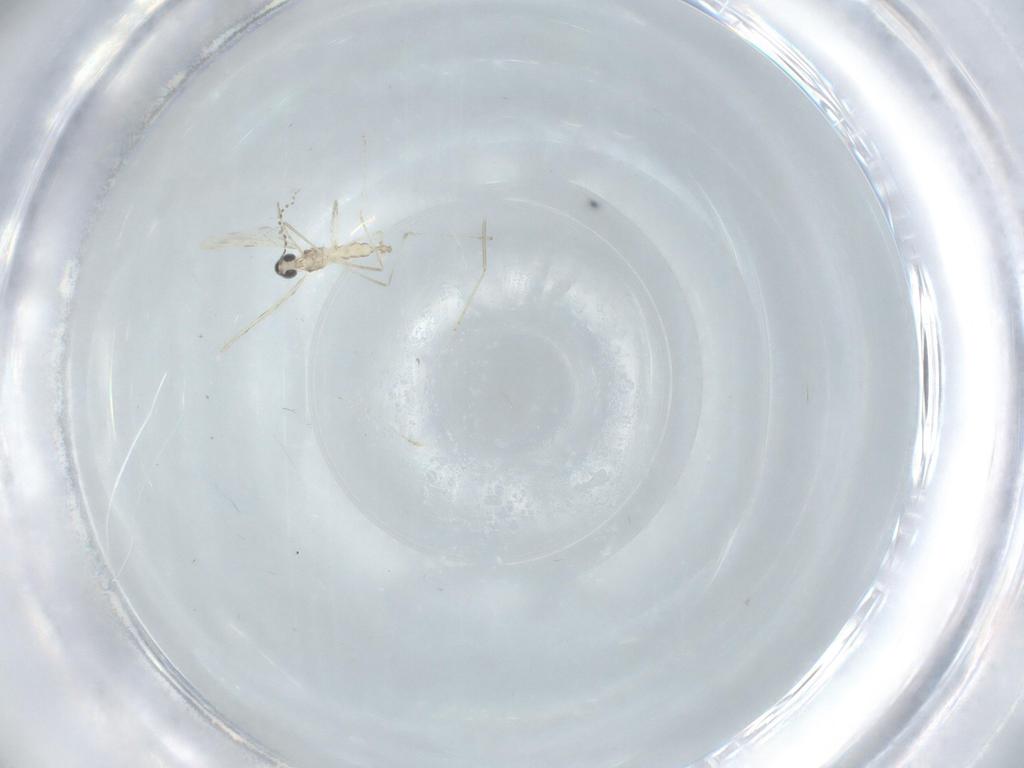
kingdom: Animalia
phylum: Arthropoda
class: Insecta
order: Diptera
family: Cecidomyiidae
